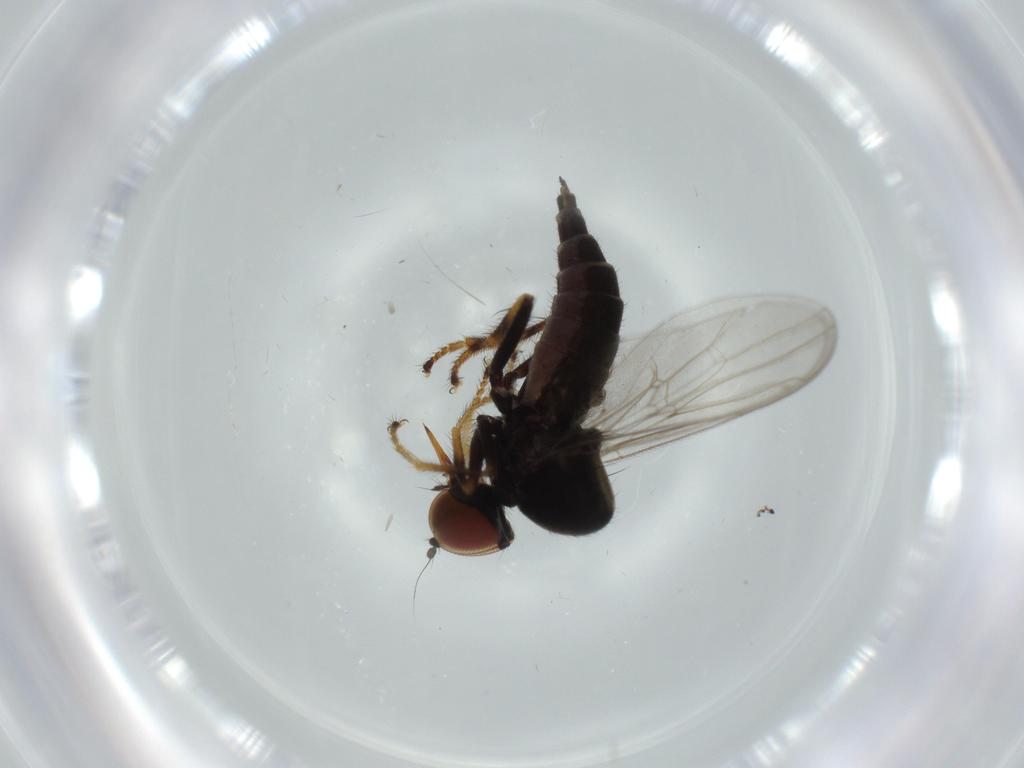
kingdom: Animalia
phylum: Arthropoda
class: Insecta
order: Diptera
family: Hybotidae
